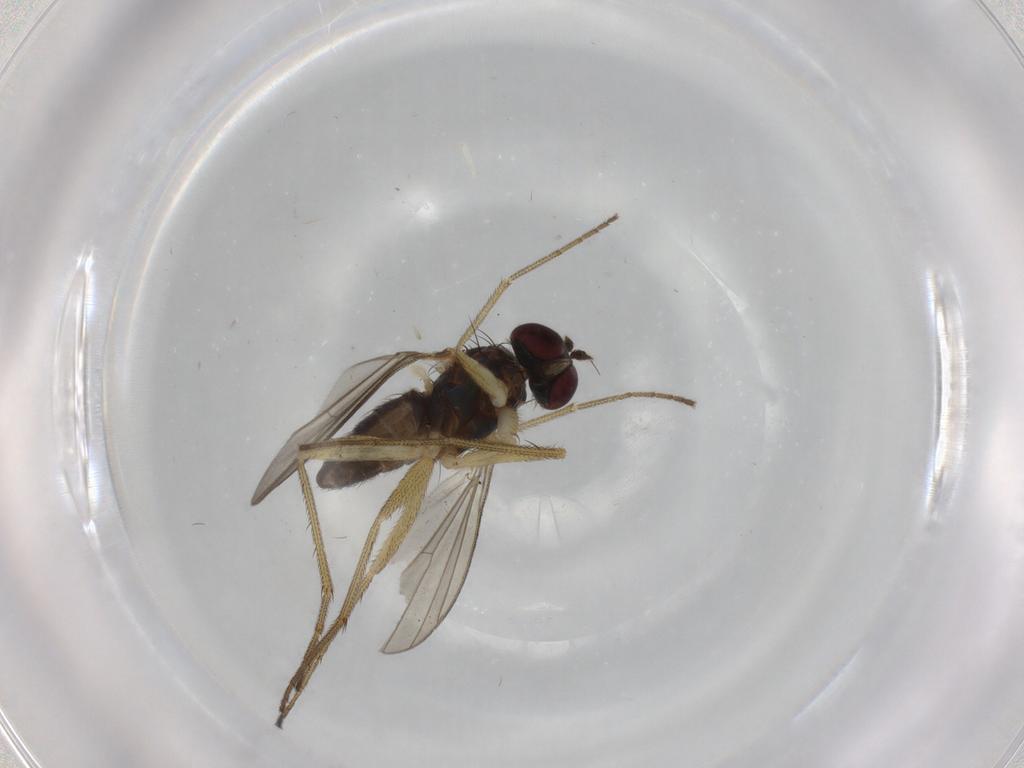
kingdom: Animalia
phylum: Arthropoda
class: Insecta
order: Diptera
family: Dolichopodidae
